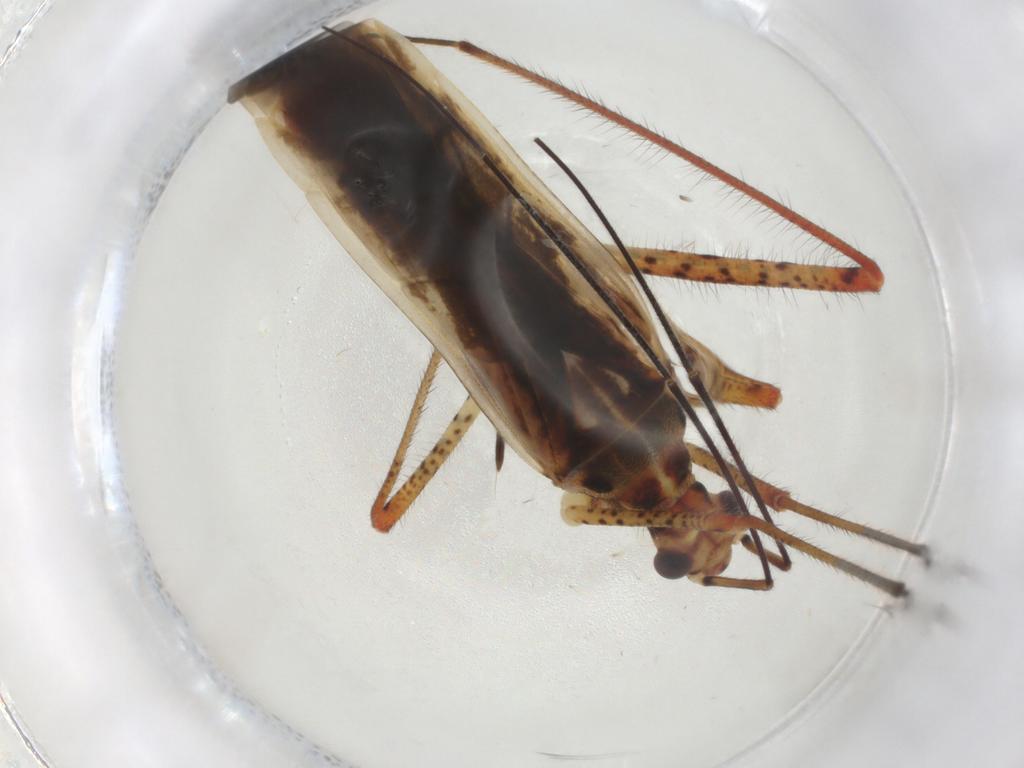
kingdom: Animalia
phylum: Arthropoda
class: Insecta
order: Hemiptera
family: Miridae
